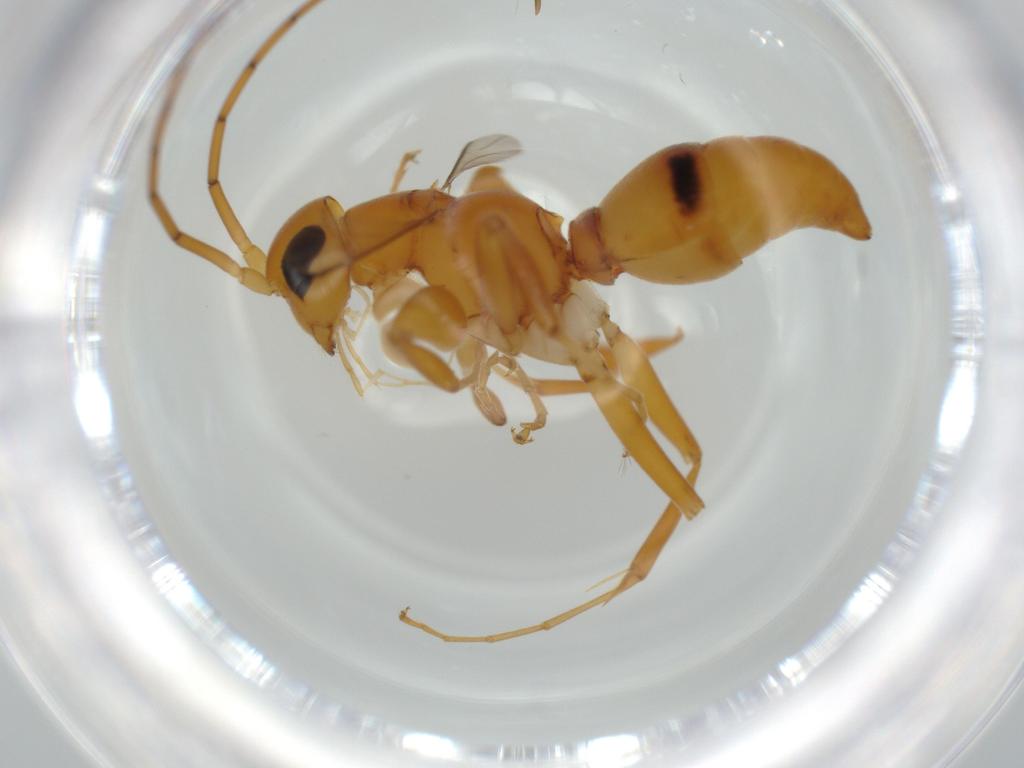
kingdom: Animalia
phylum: Arthropoda
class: Insecta
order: Hymenoptera
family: Rhopalosomatidae
